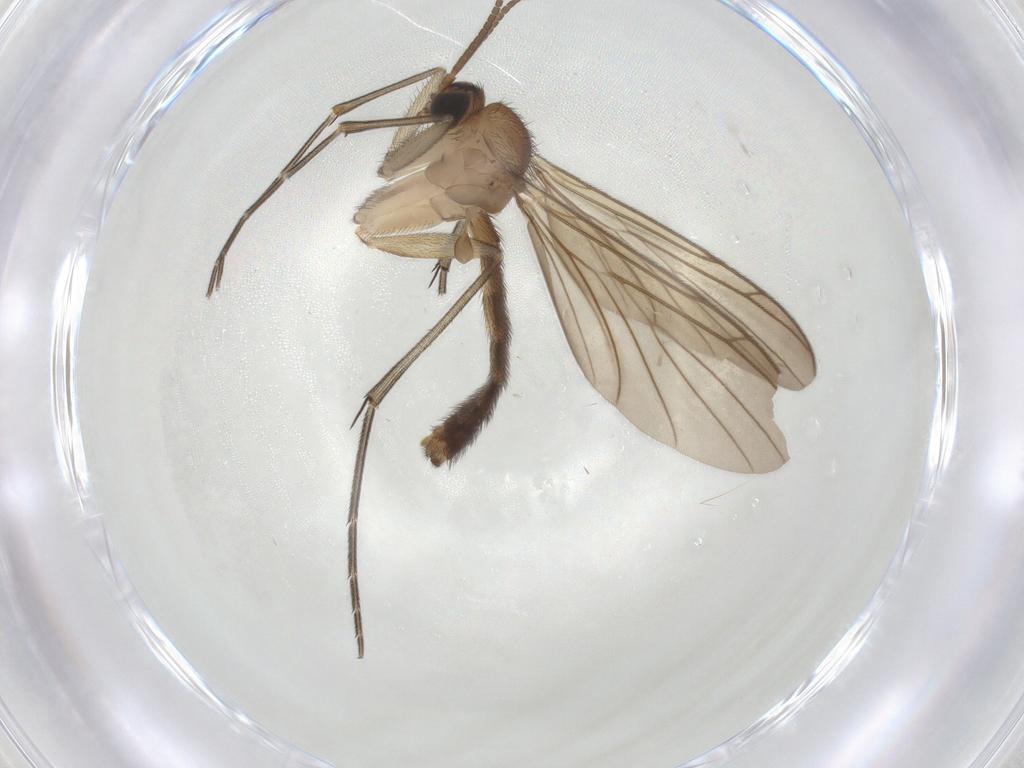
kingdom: Animalia
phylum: Arthropoda
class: Insecta
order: Diptera
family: Keroplatidae
